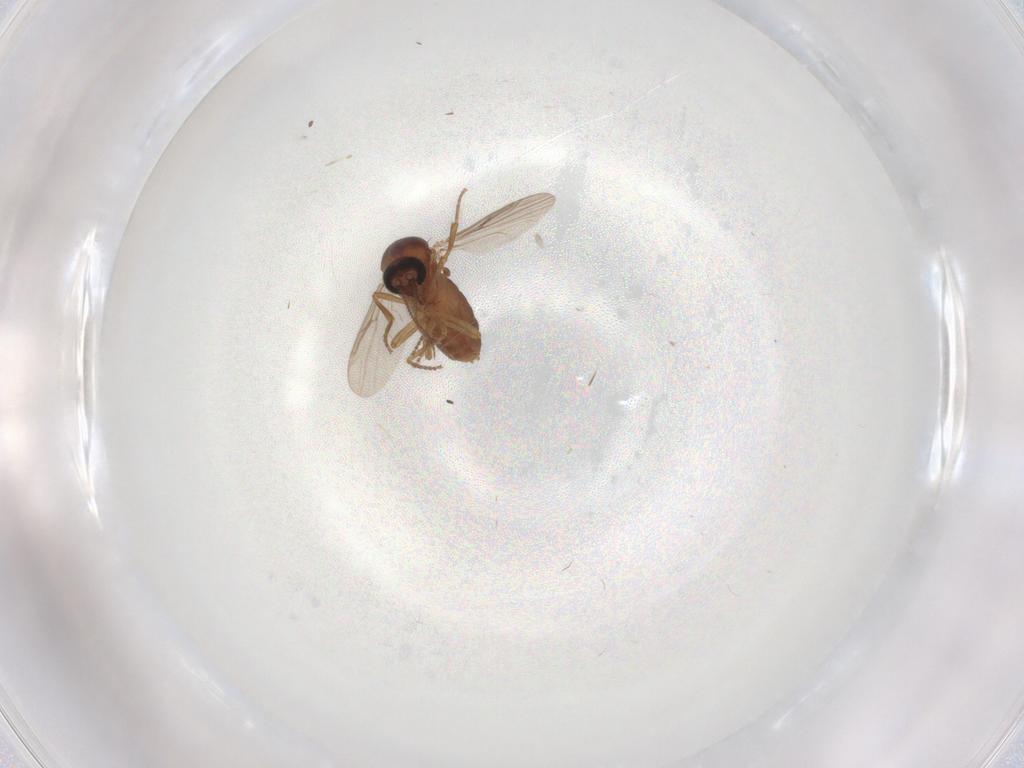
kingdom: Animalia
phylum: Arthropoda
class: Insecta
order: Diptera
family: Ceratopogonidae
